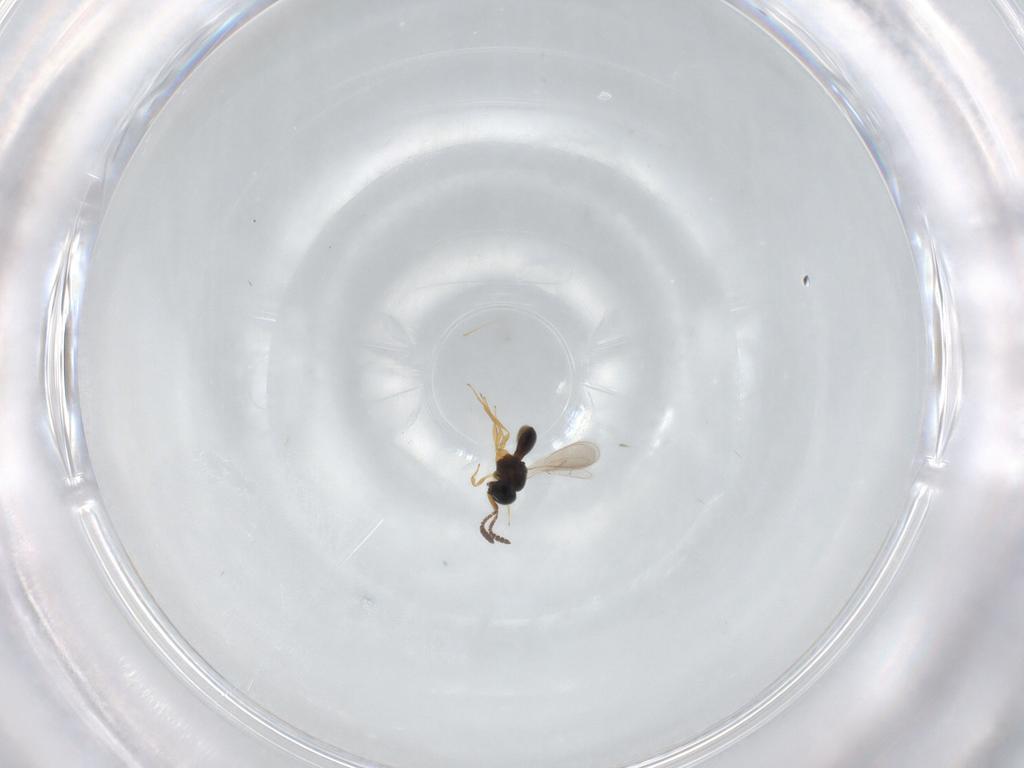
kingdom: Animalia
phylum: Arthropoda
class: Insecta
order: Hymenoptera
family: Scelionidae
